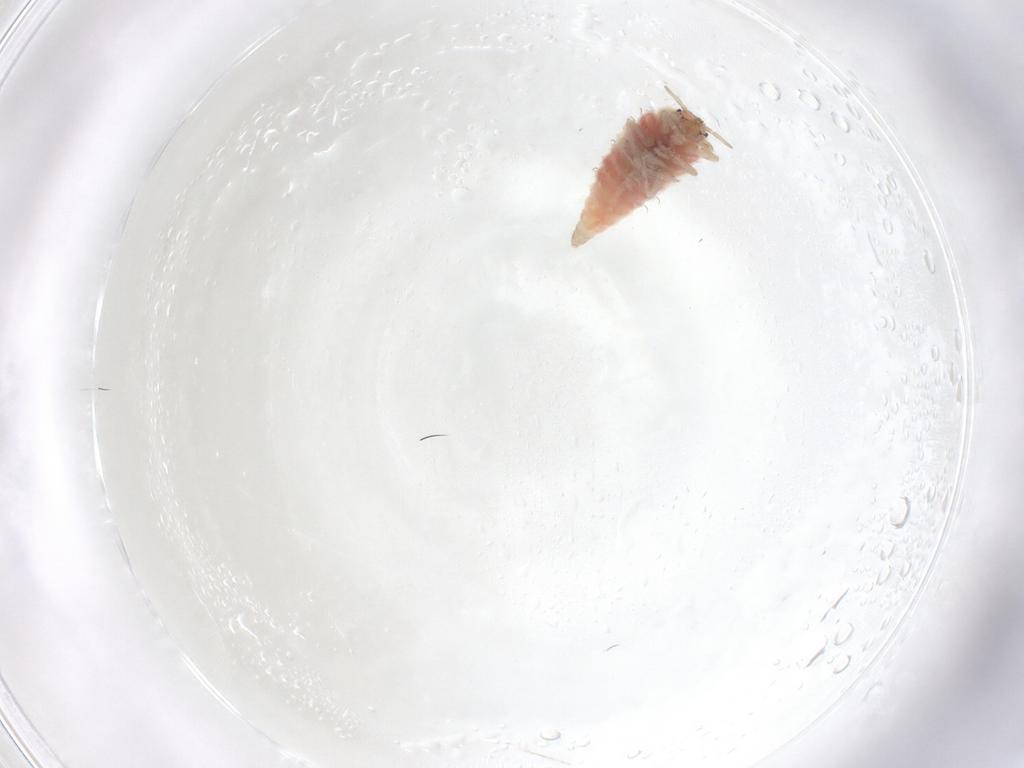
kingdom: Animalia
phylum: Arthropoda
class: Insecta
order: Neuroptera
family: Coniopterygidae
